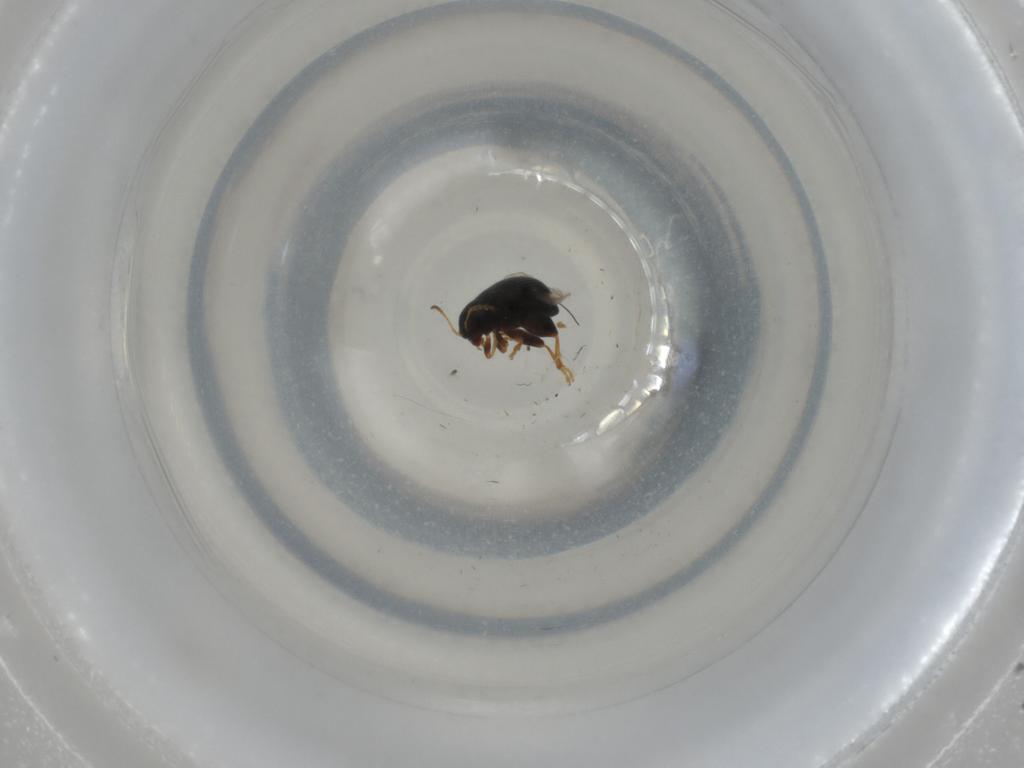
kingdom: Animalia
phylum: Arthropoda
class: Insecta
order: Coleoptera
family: Chrysomelidae
